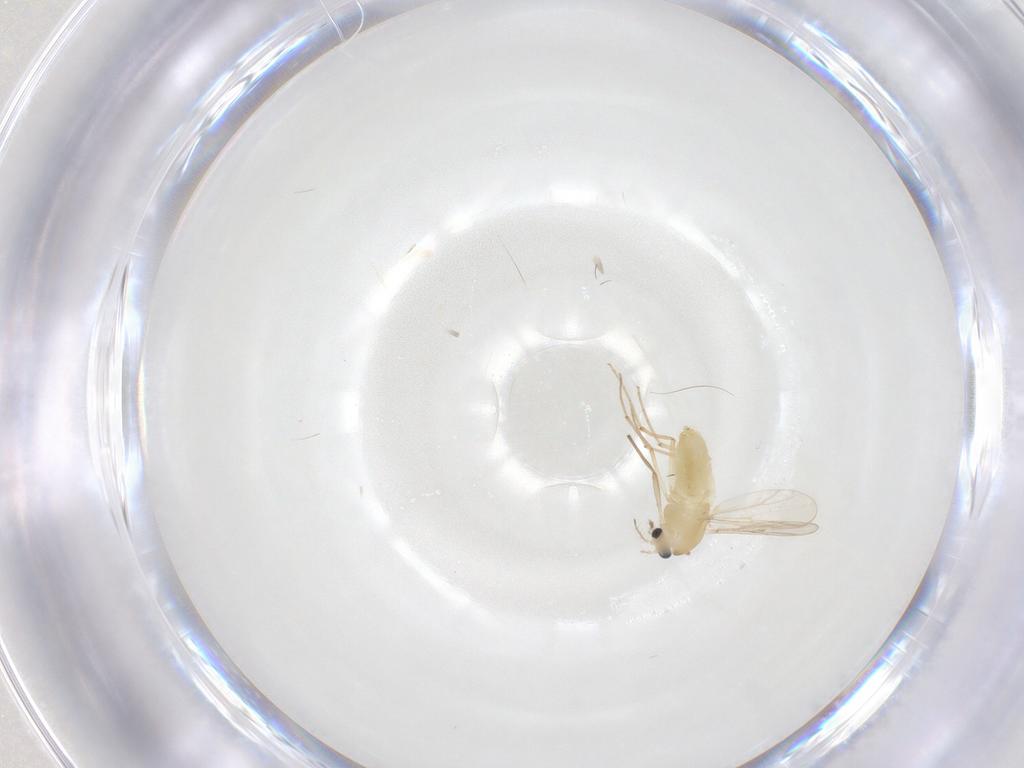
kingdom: Animalia
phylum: Arthropoda
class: Insecta
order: Diptera
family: Chironomidae
